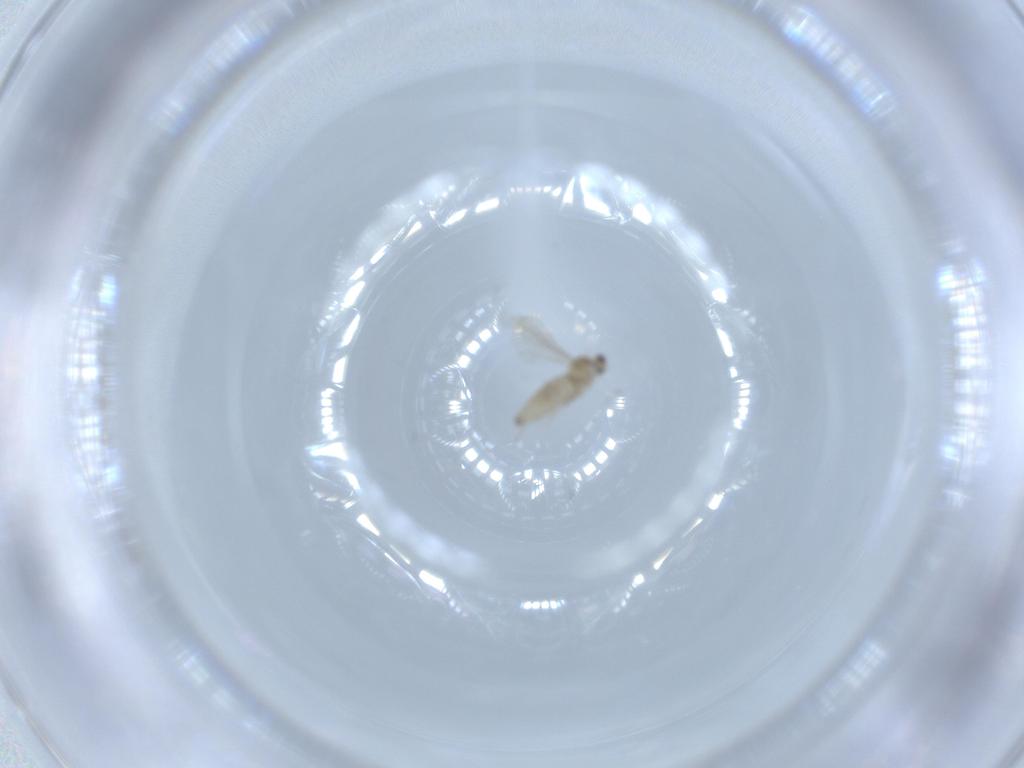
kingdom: Animalia
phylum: Arthropoda
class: Insecta
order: Diptera
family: Cecidomyiidae
